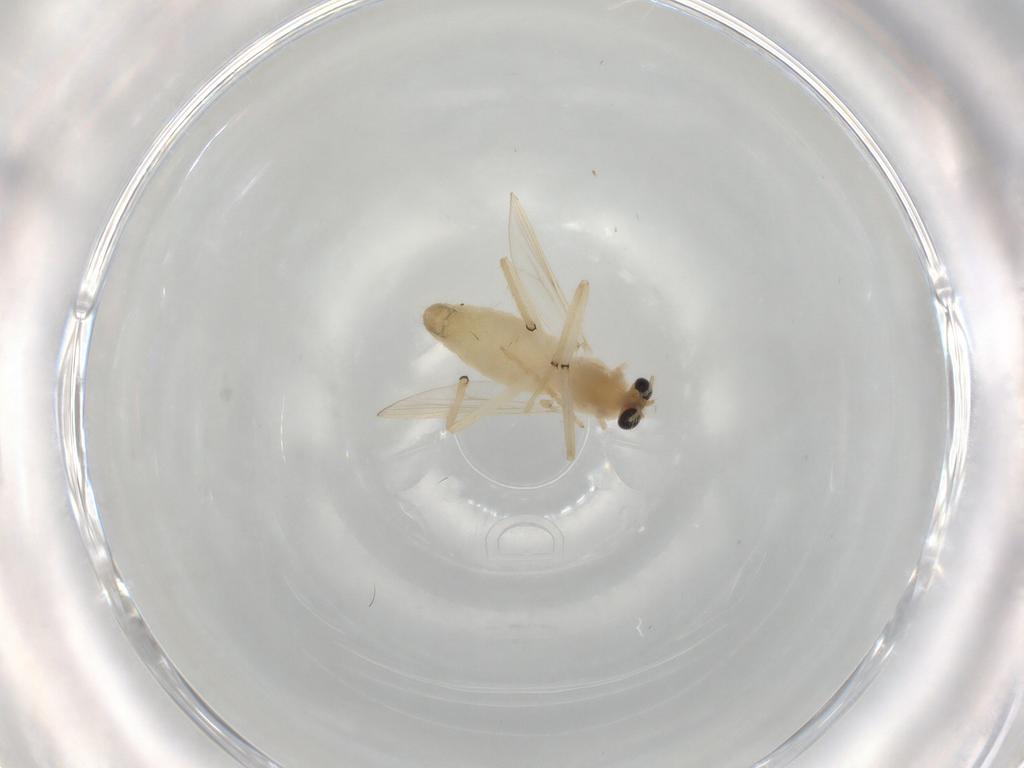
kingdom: Animalia
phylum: Arthropoda
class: Insecta
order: Diptera
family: Chironomidae
